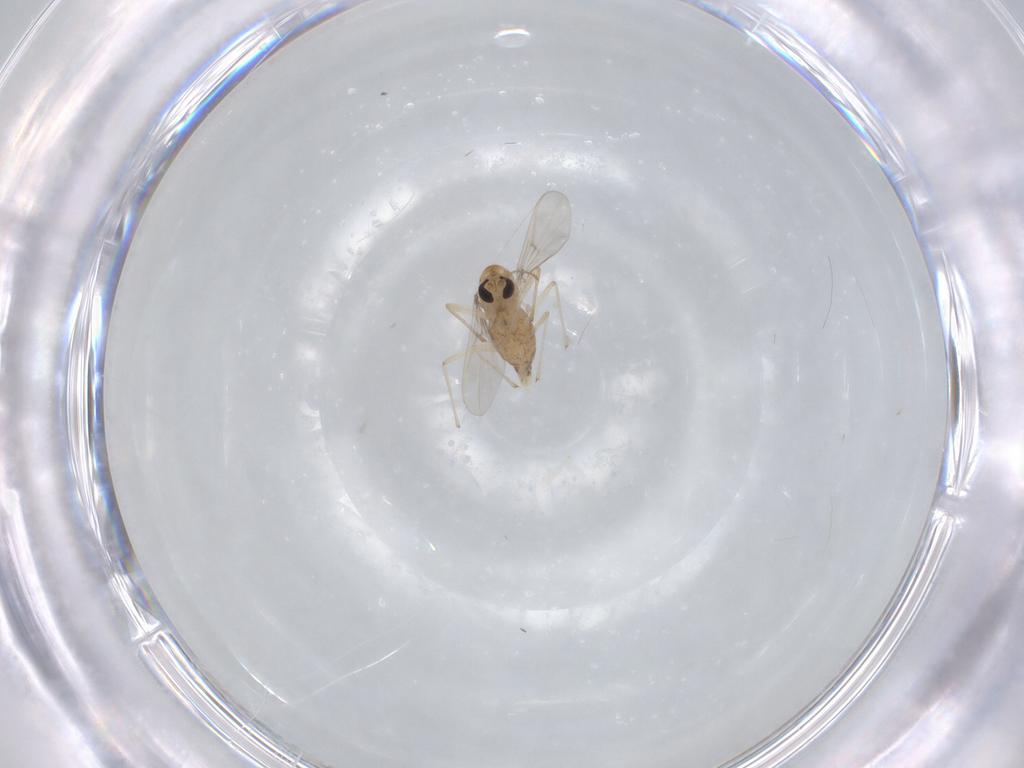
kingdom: Animalia
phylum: Arthropoda
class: Insecta
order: Diptera
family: Chironomidae
